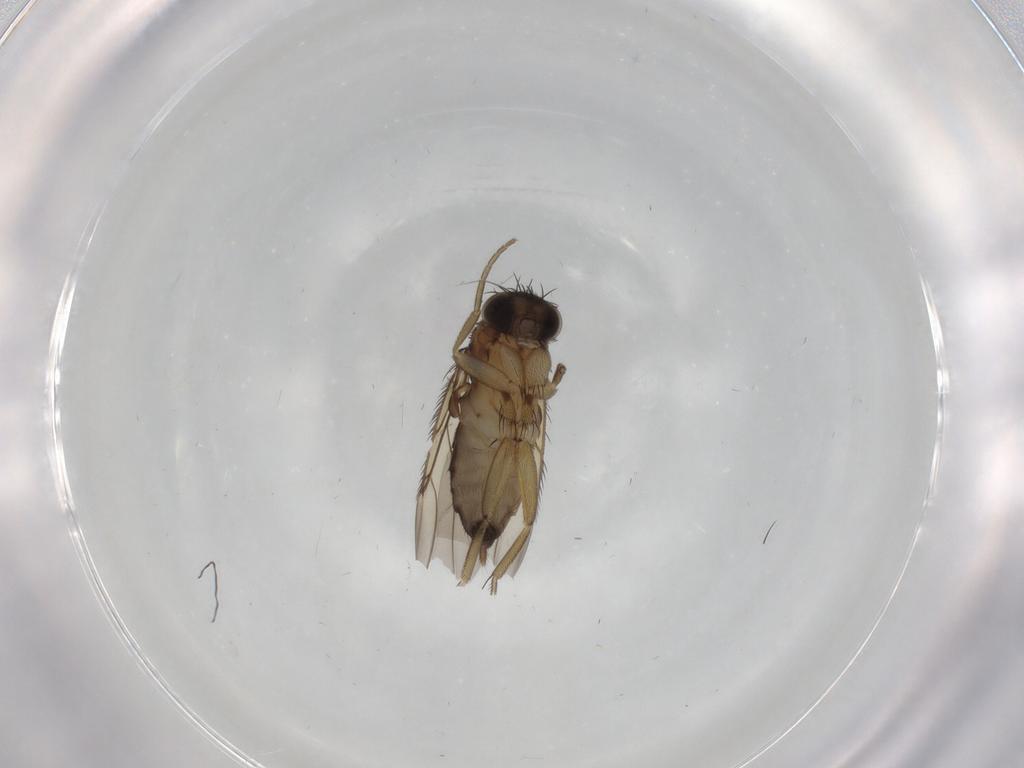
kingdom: Animalia
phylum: Arthropoda
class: Insecta
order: Diptera
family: Phoridae
